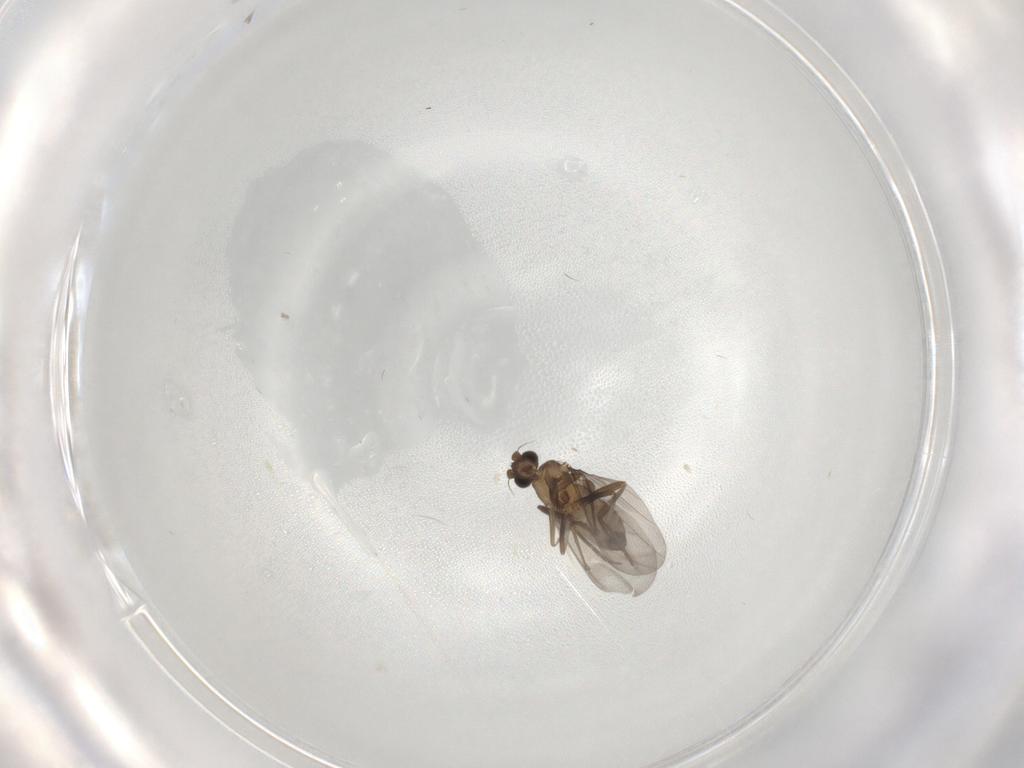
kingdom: Animalia
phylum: Arthropoda
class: Insecta
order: Diptera
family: Phoridae
